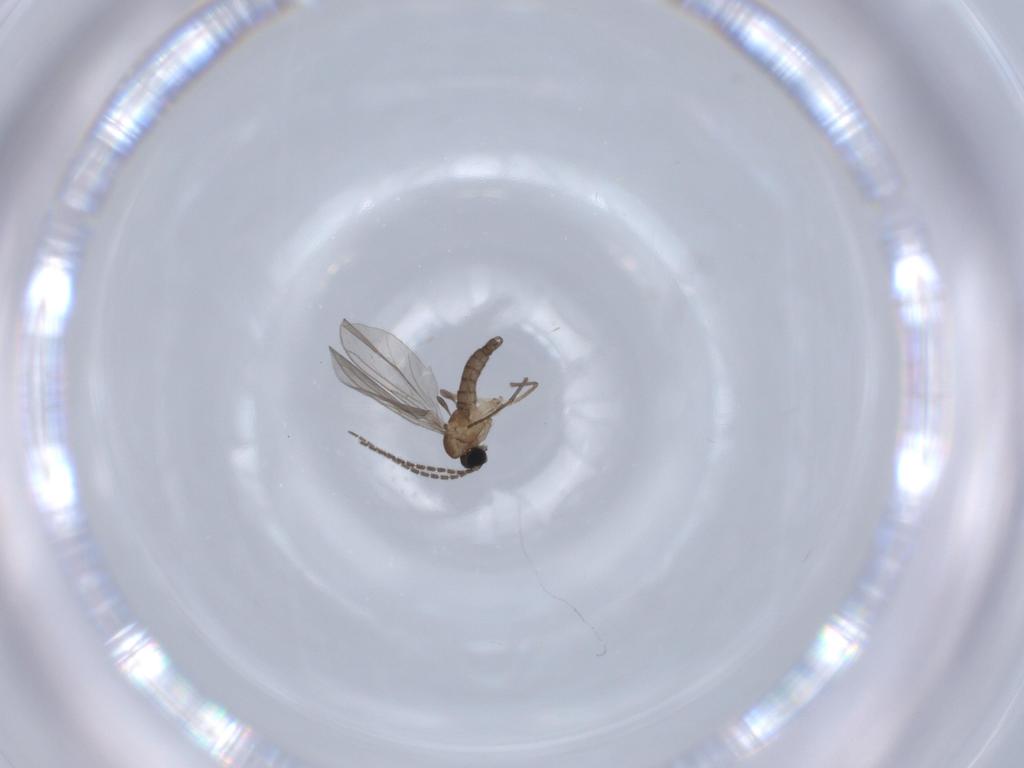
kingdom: Animalia
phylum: Arthropoda
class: Insecta
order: Diptera
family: Sciaridae
